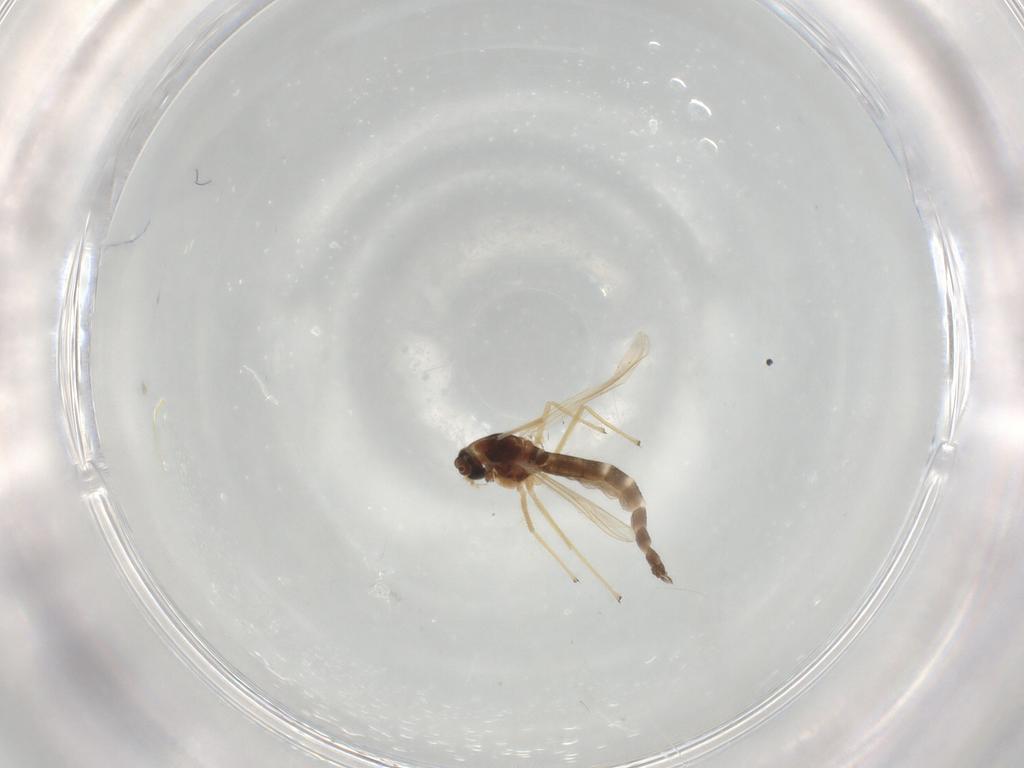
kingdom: Animalia
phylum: Arthropoda
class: Insecta
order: Diptera
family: Chironomidae
